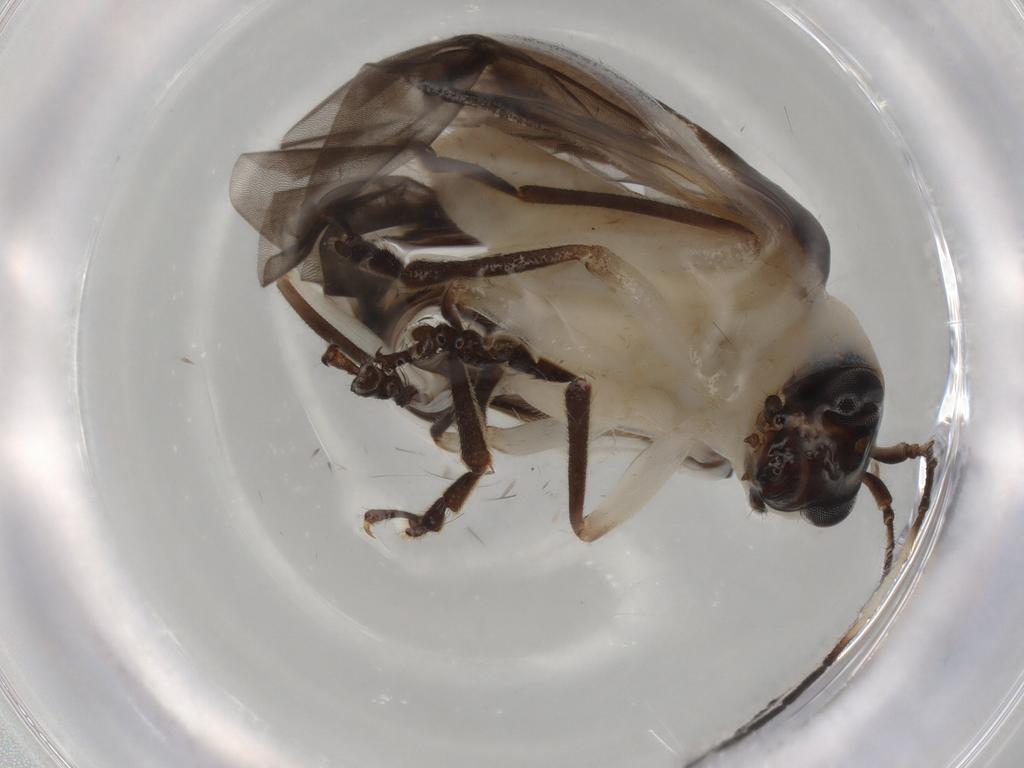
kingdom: Animalia
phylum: Arthropoda
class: Insecta
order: Coleoptera
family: Chrysomelidae
